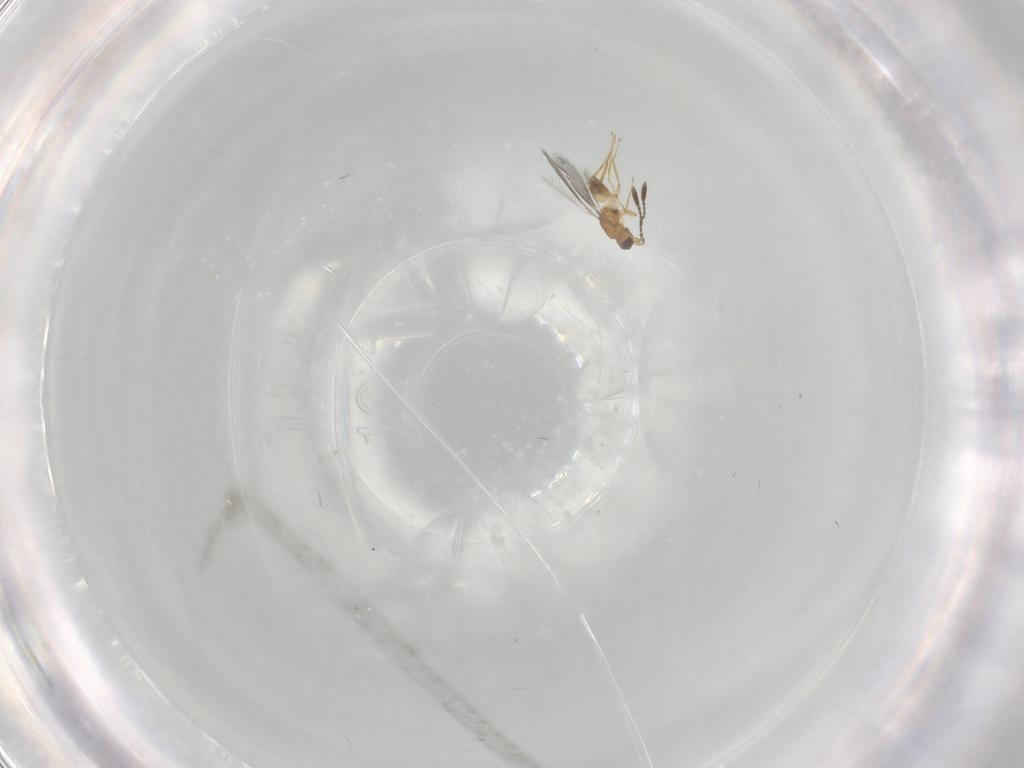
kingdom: Animalia
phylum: Arthropoda
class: Insecta
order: Hymenoptera
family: Mymaridae
